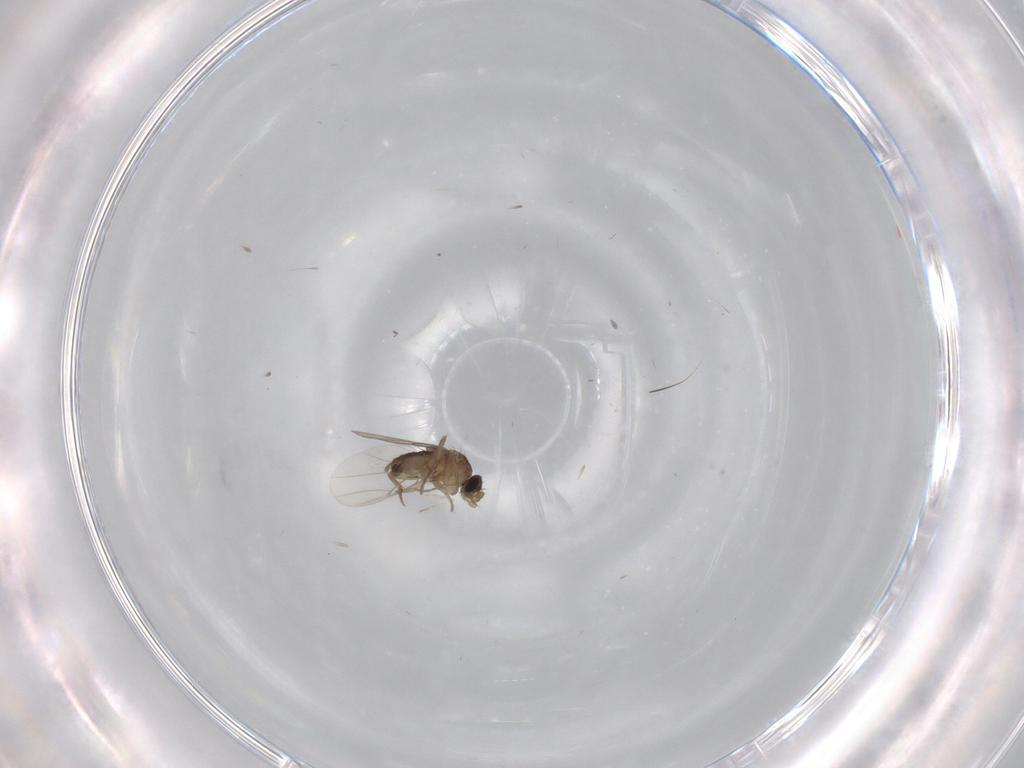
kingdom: Animalia
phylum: Arthropoda
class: Insecta
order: Diptera
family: Phoridae
